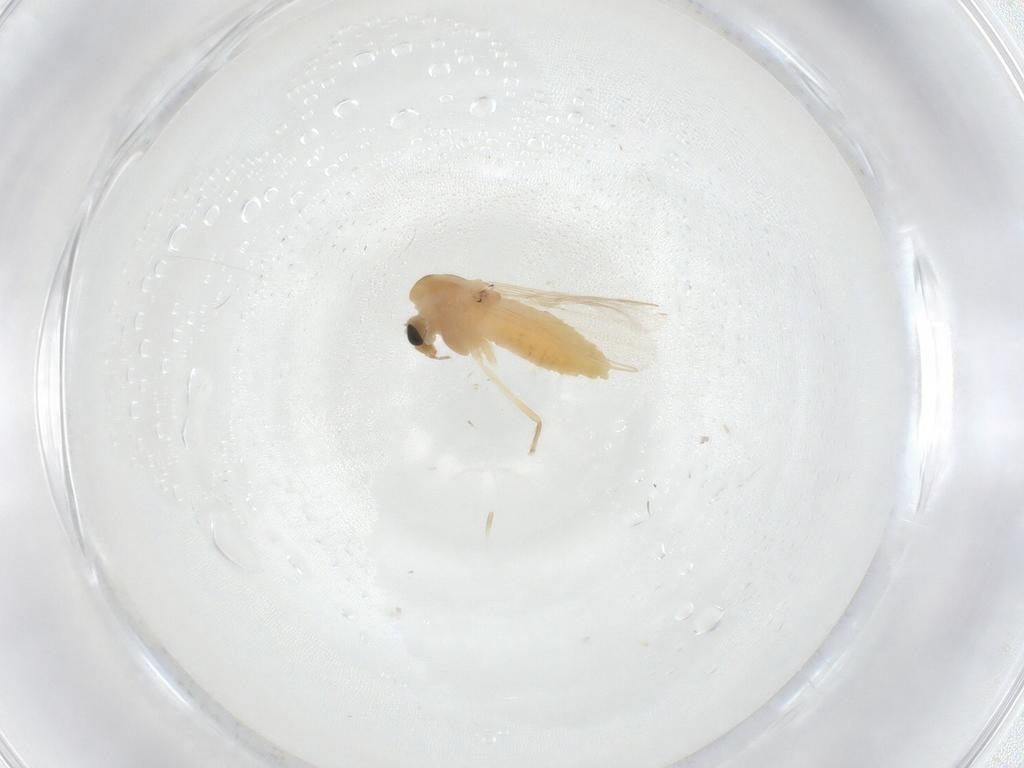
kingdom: Animalia
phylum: Arthropoda
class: Insecta
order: Diptera
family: Chironomidae
